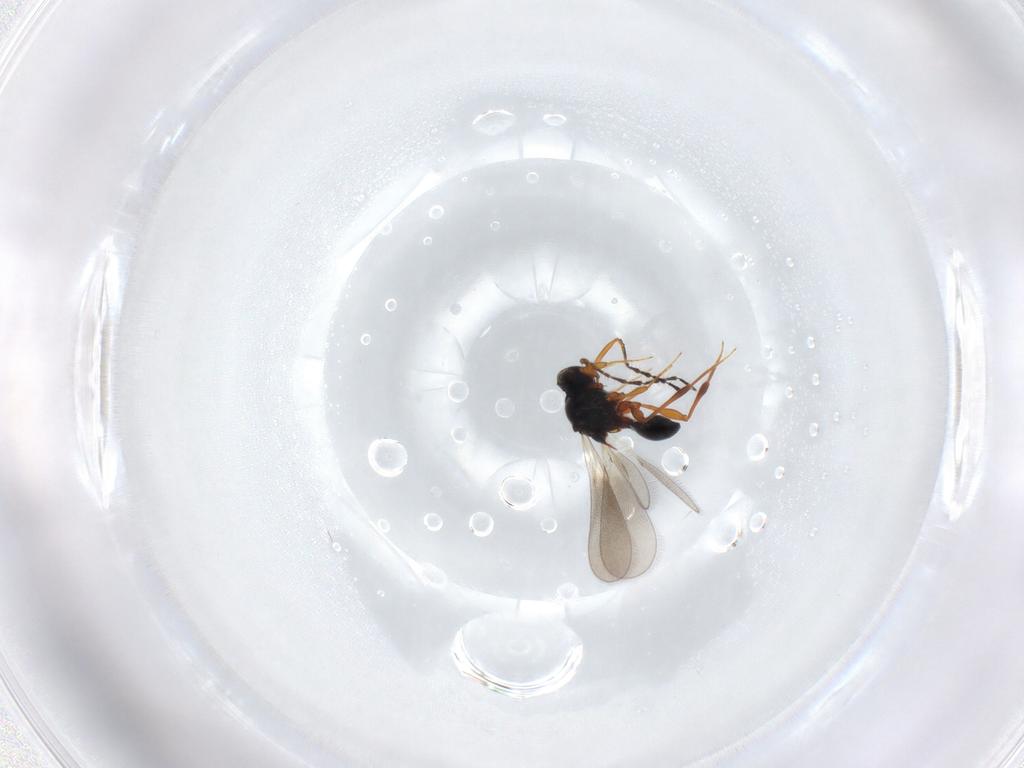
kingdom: Animalia
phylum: Arthropoda
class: Insecta
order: Hymenoptera
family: Platygastridae
